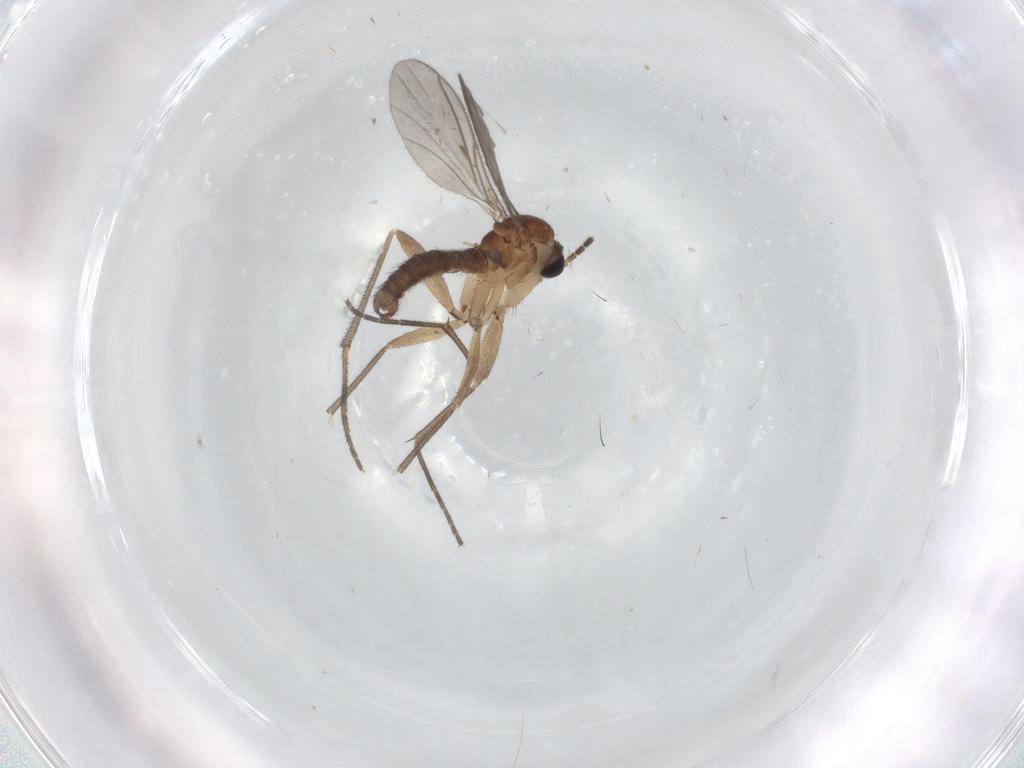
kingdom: Animalia
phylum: Arthropoda
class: Insecta
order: Diptera
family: Sciaridae
